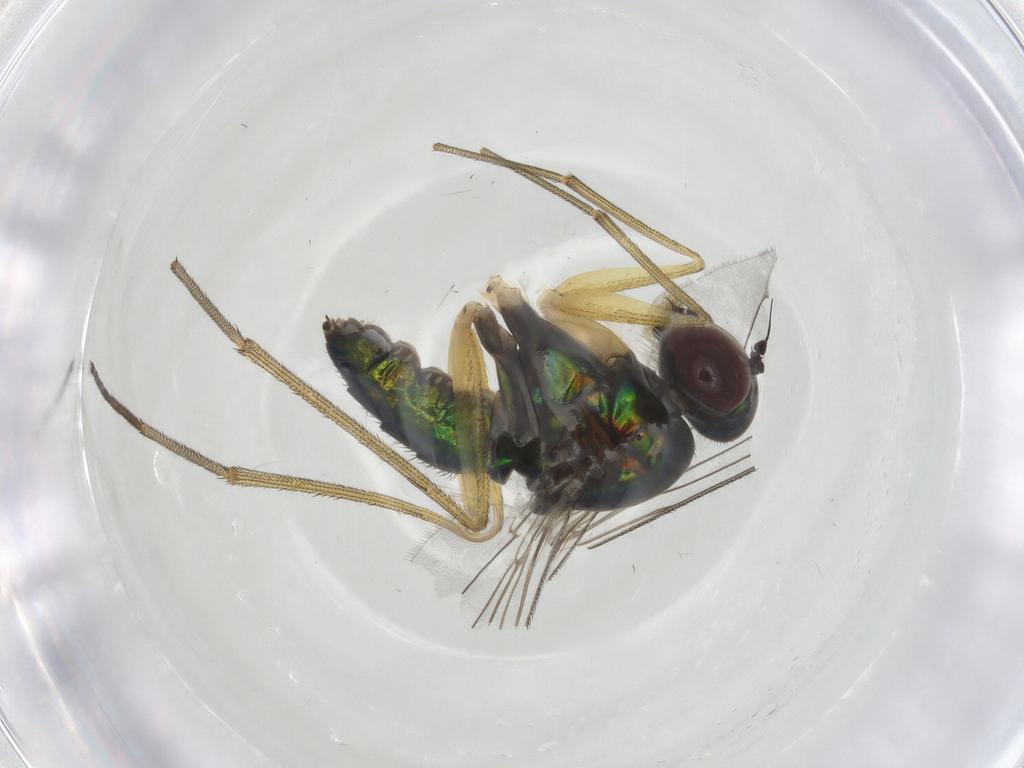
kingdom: Animalia
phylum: Arthropoda
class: Insecta
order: Diptera
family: Dolichopodidae
